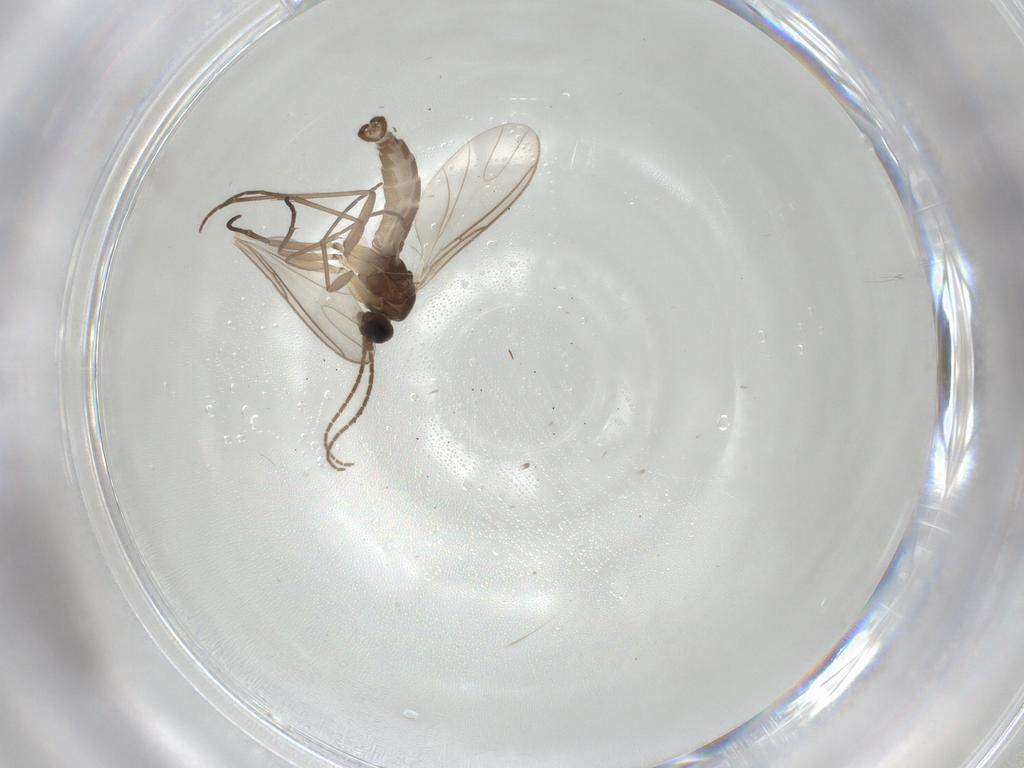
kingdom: Animalia
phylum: Arthropoda
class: Insecta
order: Diptera
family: Sciaridae
